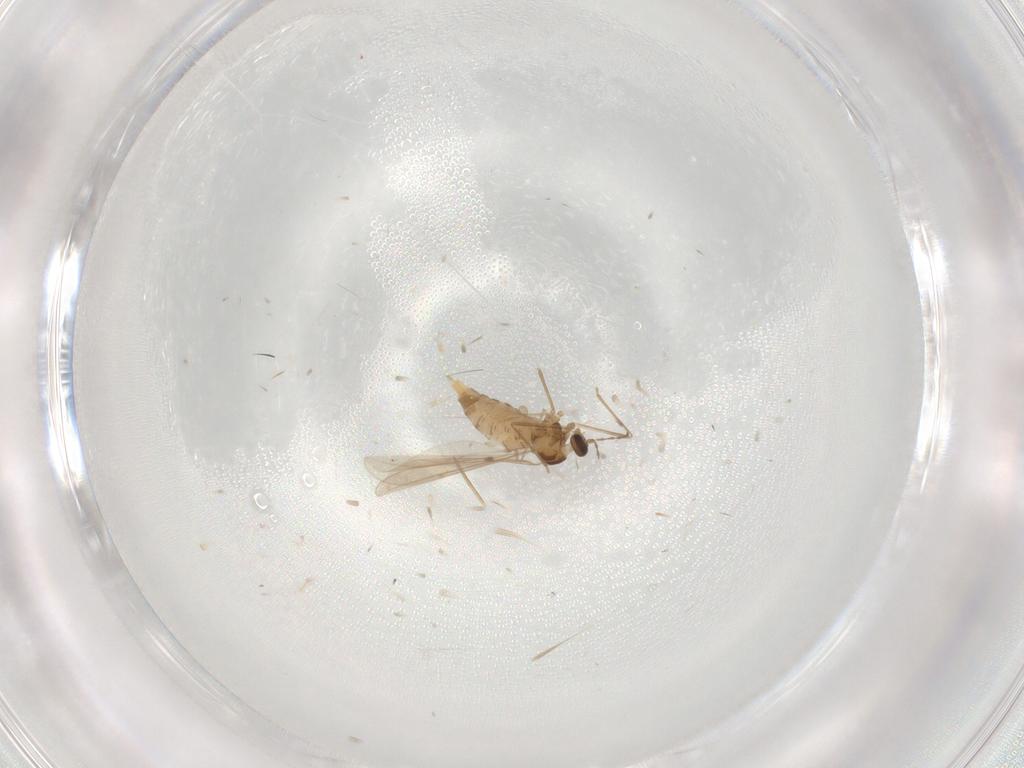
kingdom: Animalia
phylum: Arthropoda
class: Insecta
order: Diptera
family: Cecidomyiidae
